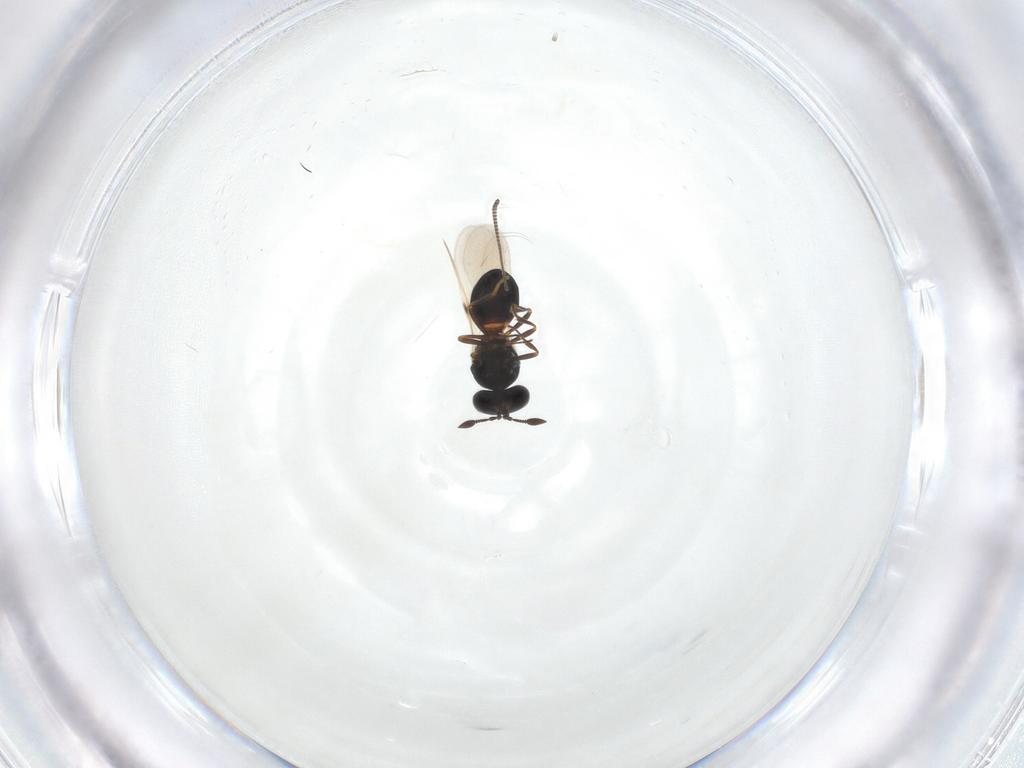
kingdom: Animalia
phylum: Arthropoda
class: Insecta
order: Hymenoptera
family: Scelionidae
